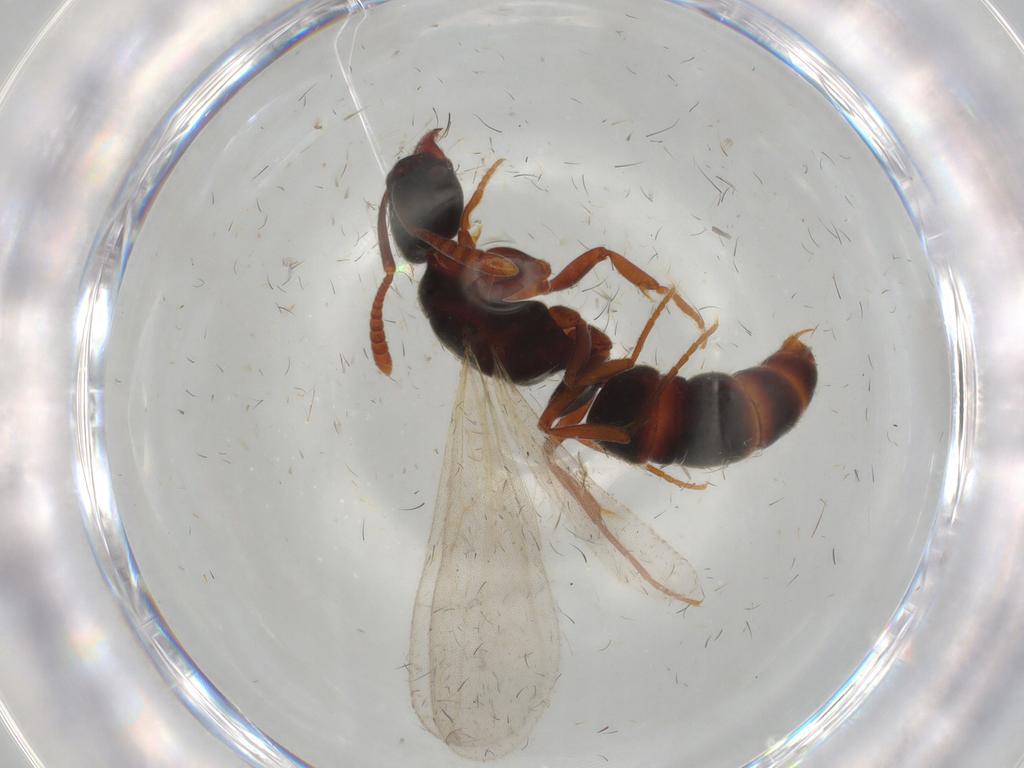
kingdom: Animalia
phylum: Arthropoda
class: Insecta
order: Hymenoptera
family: Formicidae
